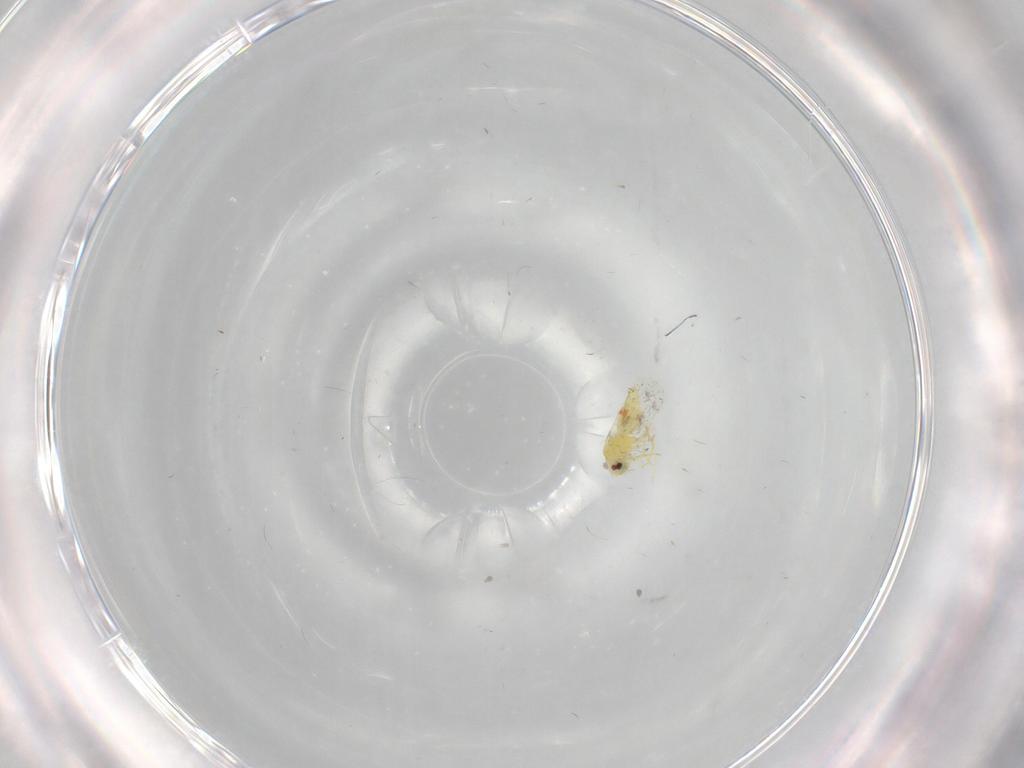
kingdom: Animalia
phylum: Arthropoda
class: Insecta
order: Hemiptera
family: Aleyrodidae
